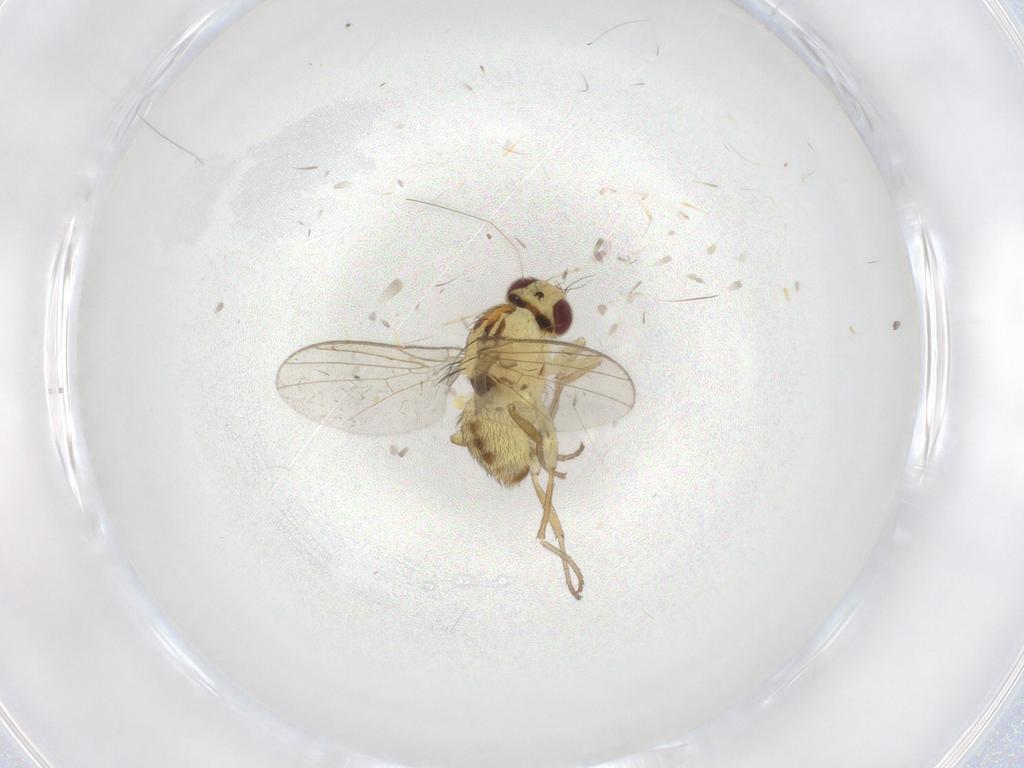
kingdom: Animalia
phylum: Arthropoda
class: Insecta
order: Diptera
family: Agromyzidae
